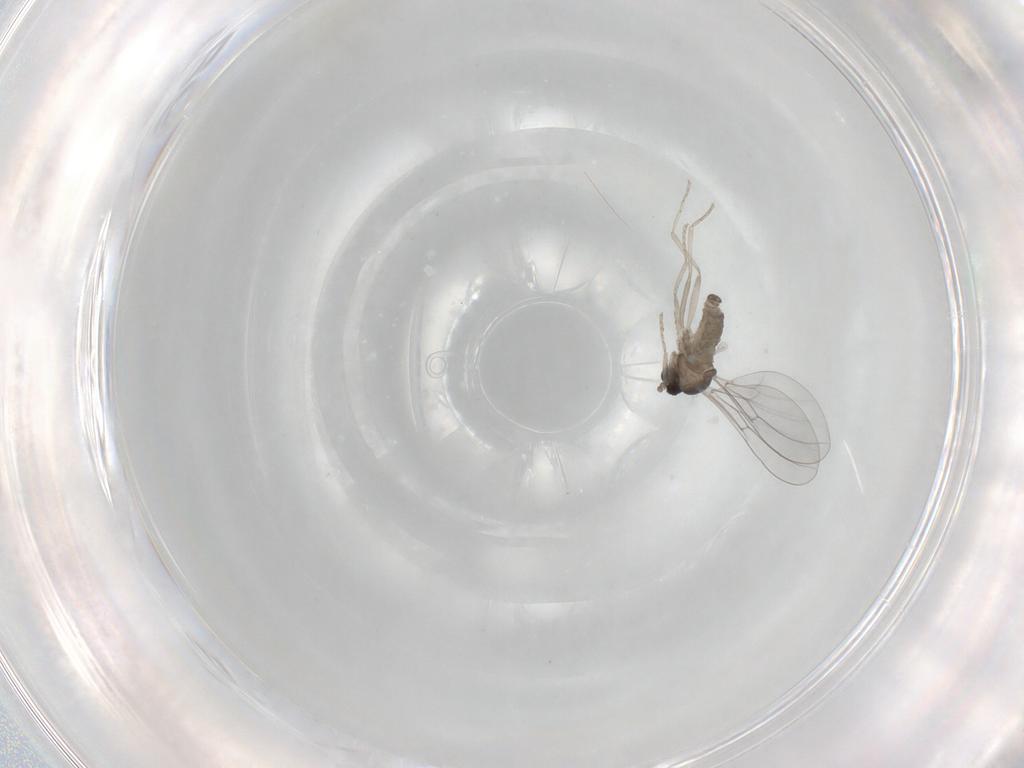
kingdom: Animalia
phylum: Arthropoda
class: Insecta
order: Diptera
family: Cecidomyiidae
